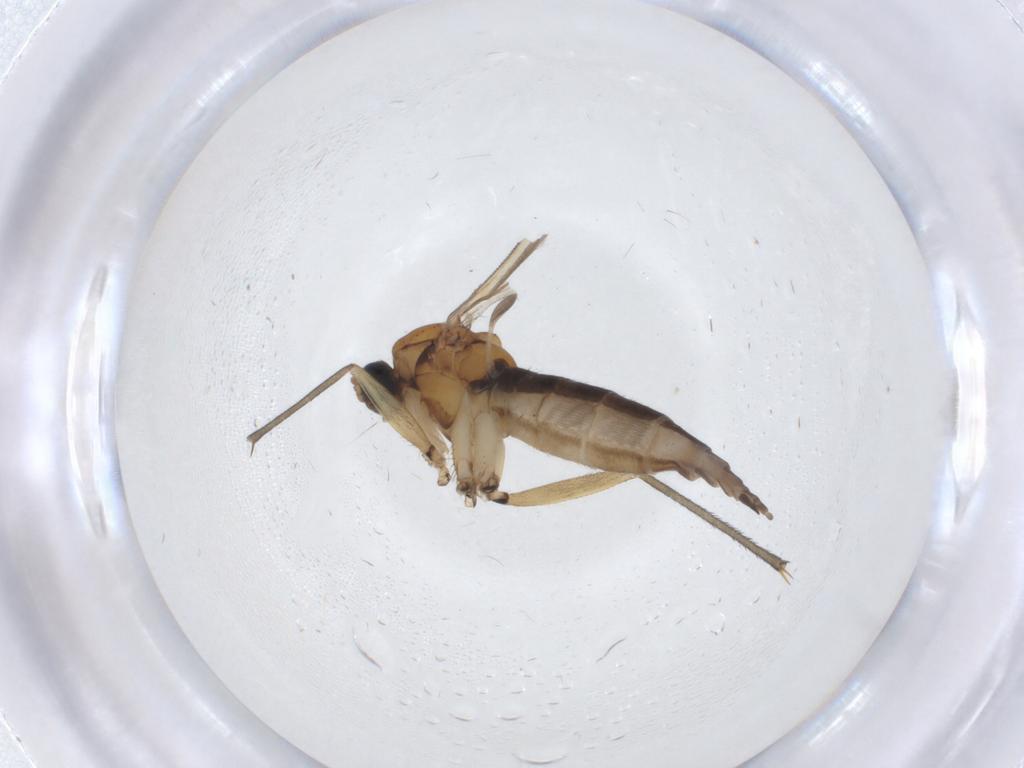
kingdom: Animalia
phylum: Arthropoda
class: Insecta
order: Diptera
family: Sciaridae
